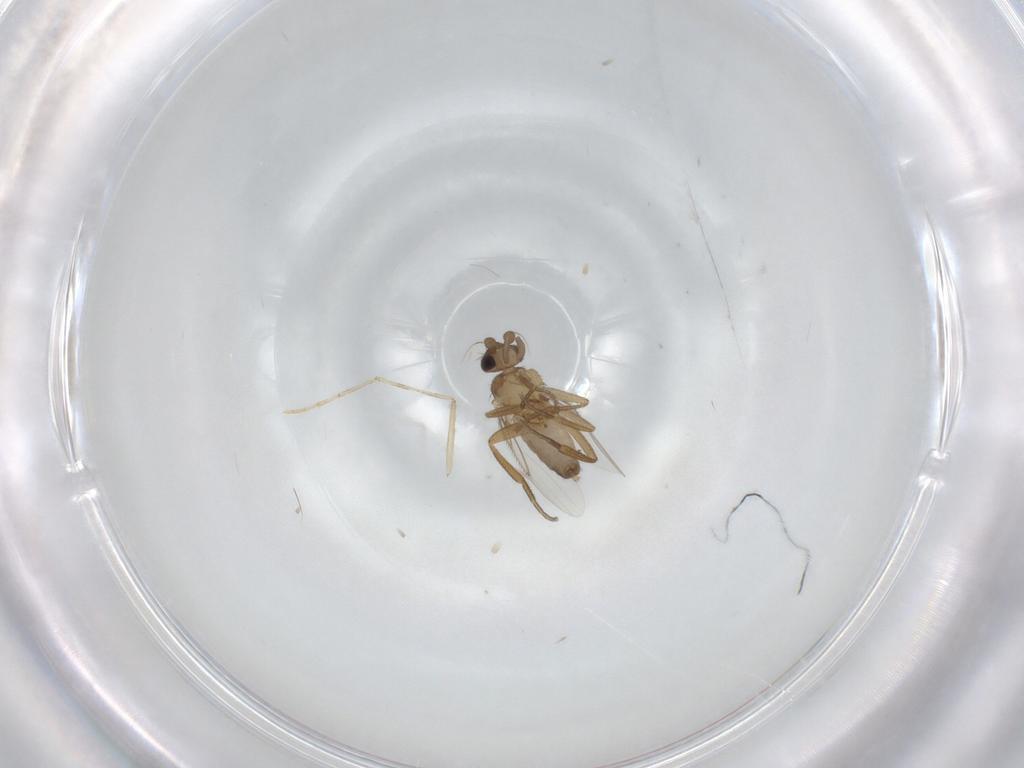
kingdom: Animalia
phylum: Arthropoda
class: Insecta
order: Diptera
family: Psychodidae
